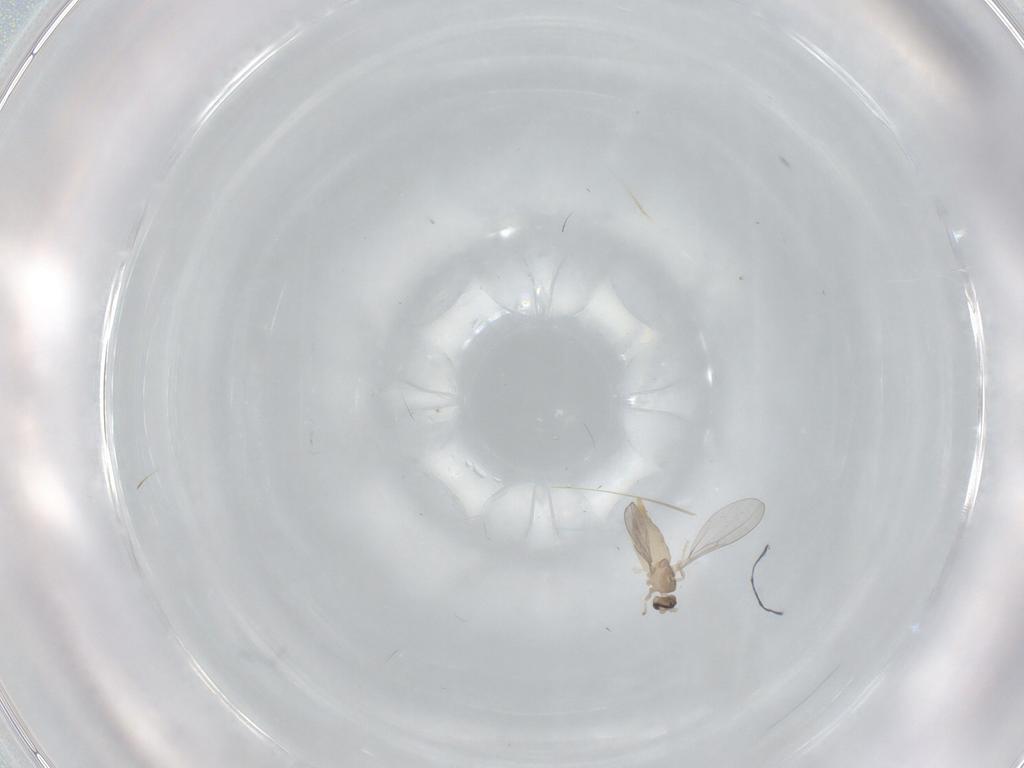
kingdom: Animalia
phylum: Arthropoda
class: Insecta
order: Diptera
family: Cecidomyiidae
